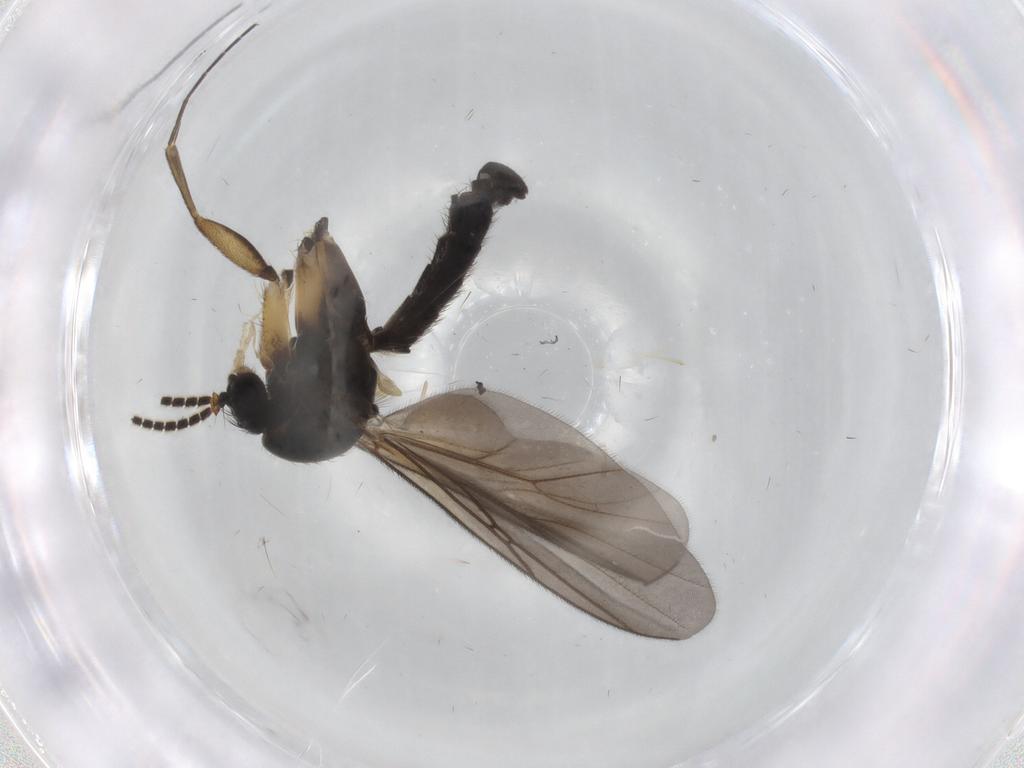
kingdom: Animalia
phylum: Arthropoda
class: Insecta
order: Diptera
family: Mycetophilidae
